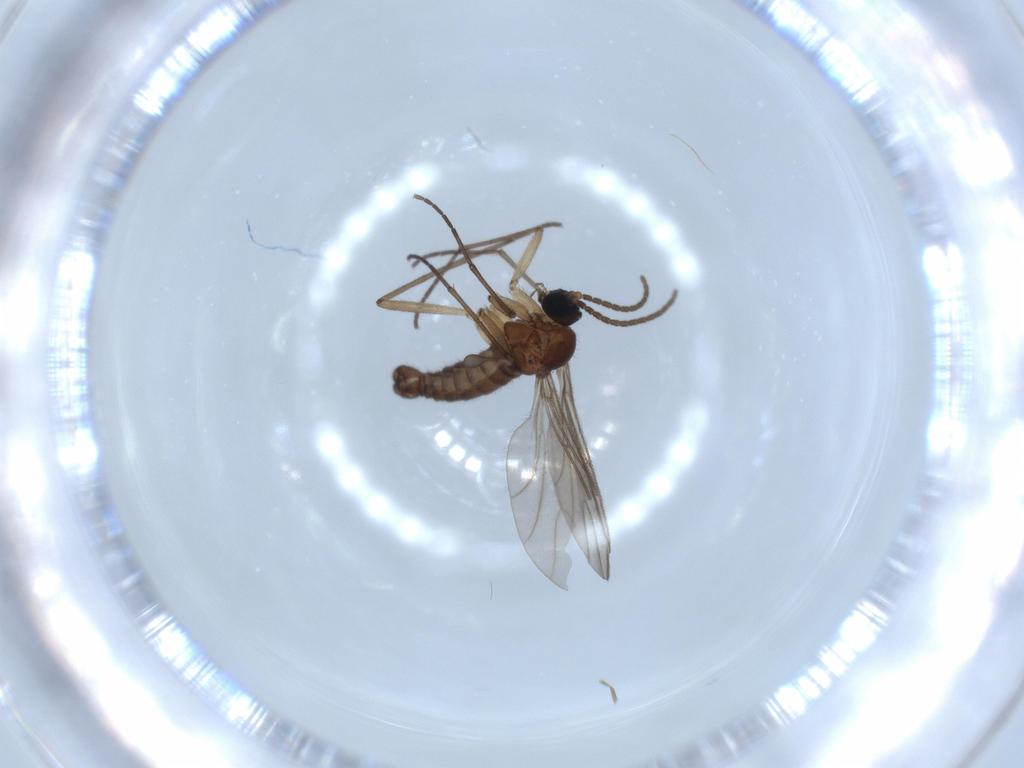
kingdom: Animalia
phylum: Arthropoda
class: Insecta
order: Diptera
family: Sciaridae
